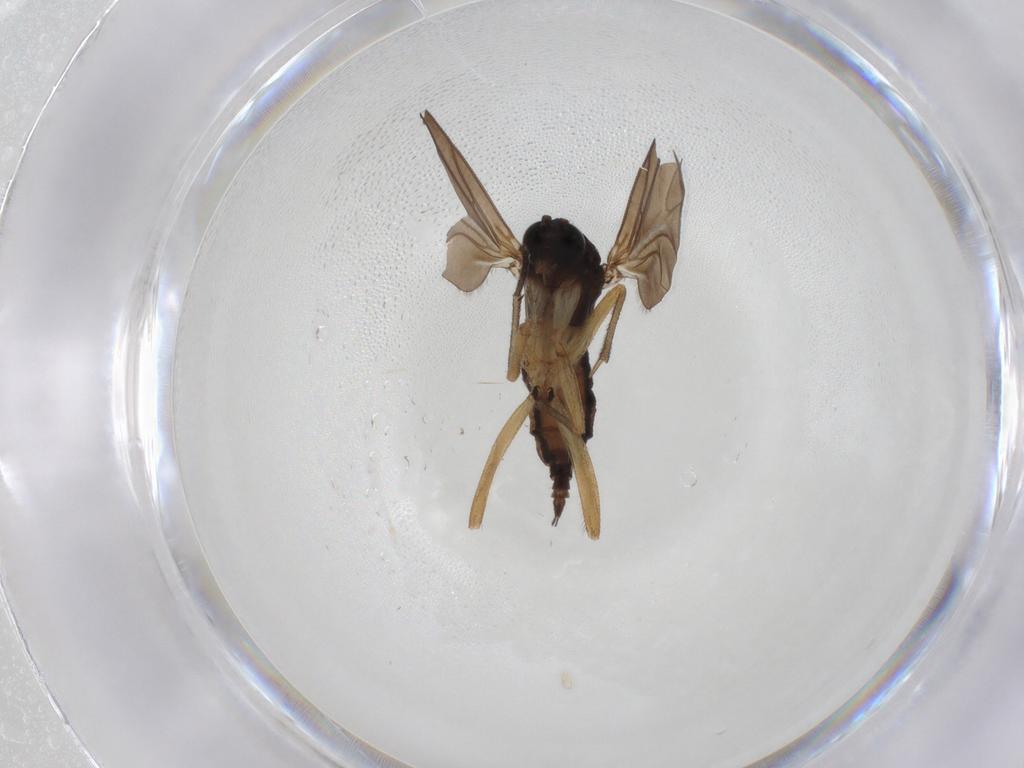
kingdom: Animalia
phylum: Arthropoda
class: Insecta
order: Diptera
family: Sciaridae
